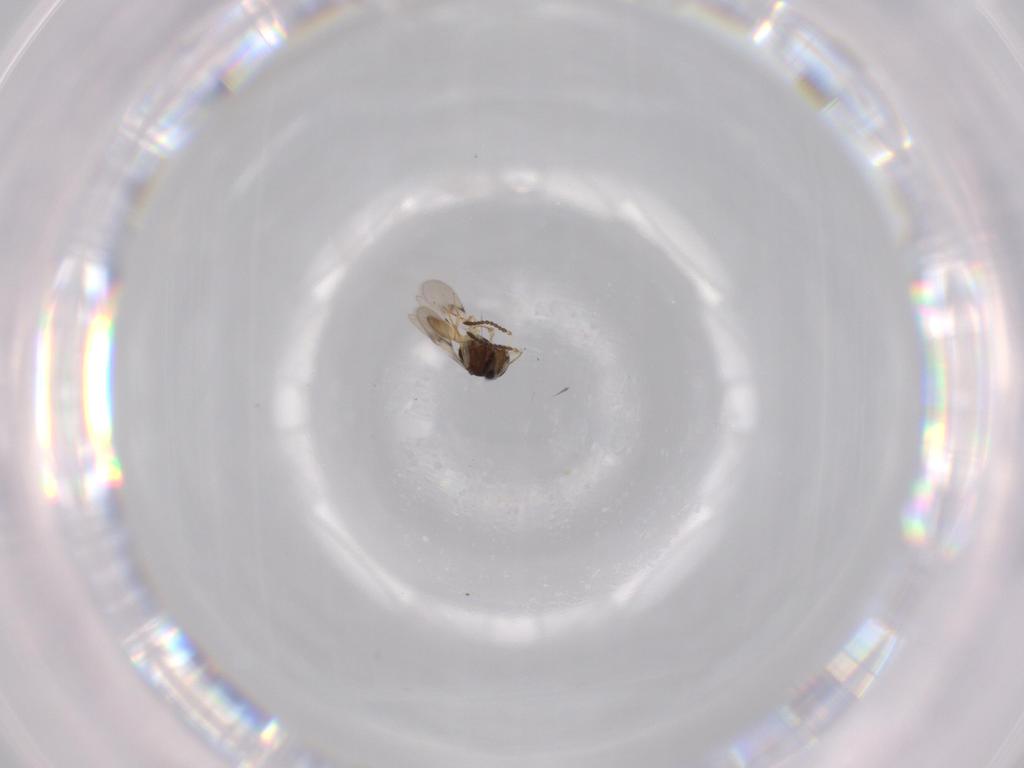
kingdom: Animalia
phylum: Arthropoda
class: Insecta
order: Hymenoptera
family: Scelionidae
